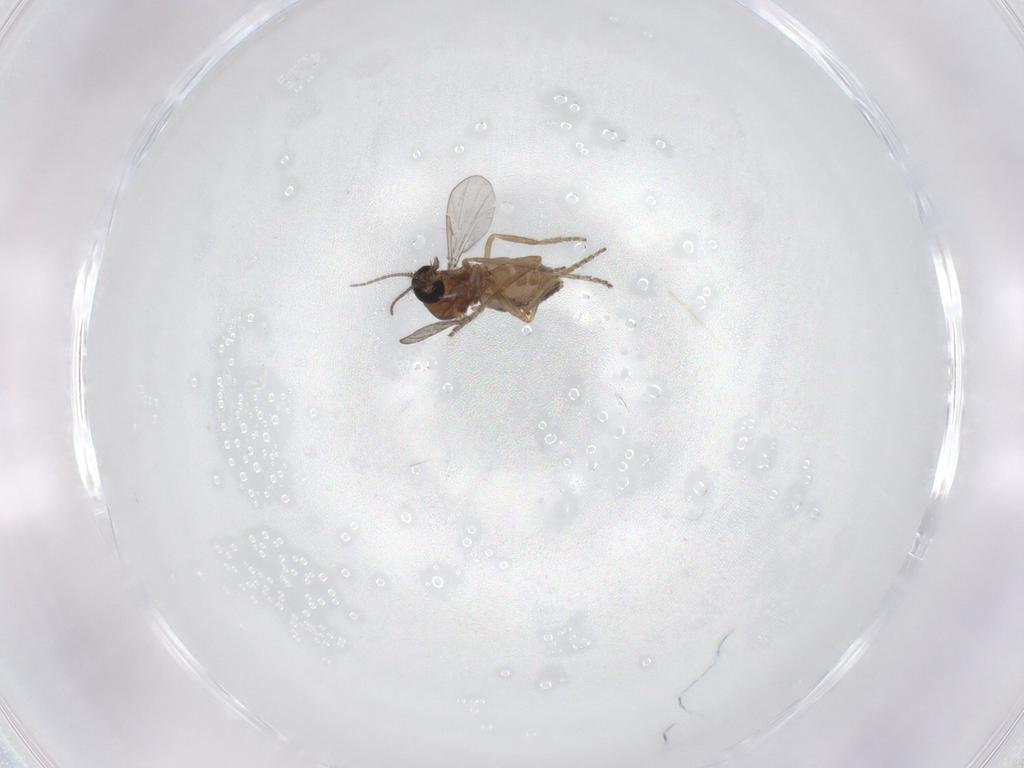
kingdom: Animalia
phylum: Arthropoda
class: Insecta
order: Diptera
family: Ceratopogonidae
